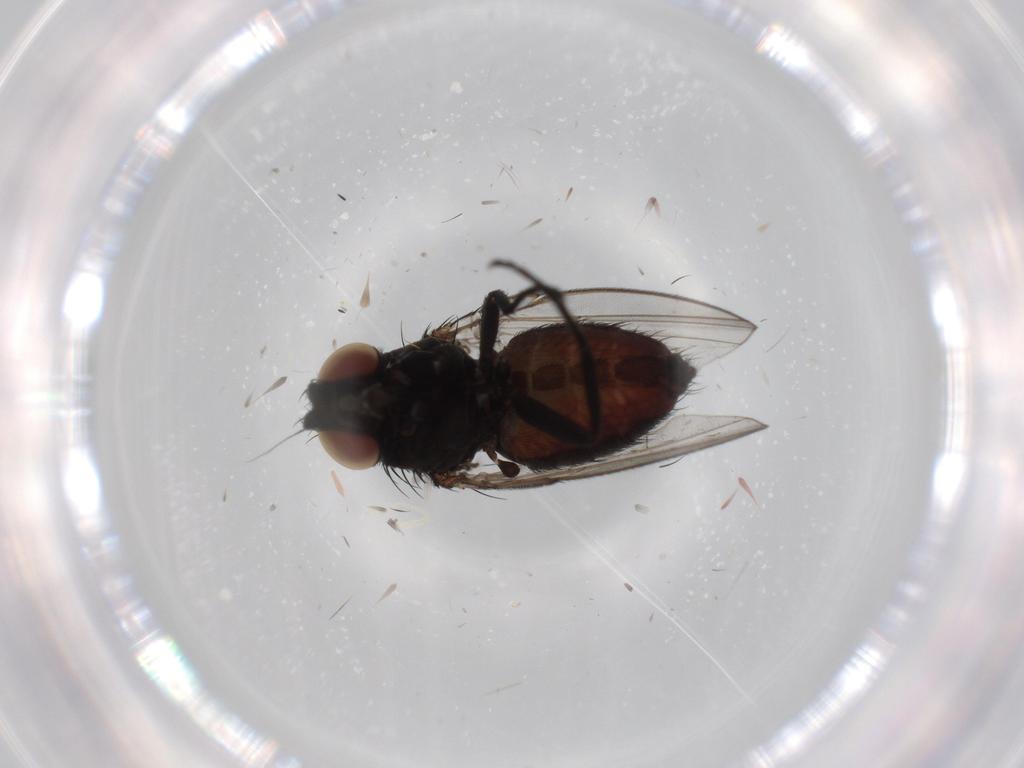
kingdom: Animalia
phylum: Arthropoda
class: Insecta
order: Diptera
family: Milichiidae
